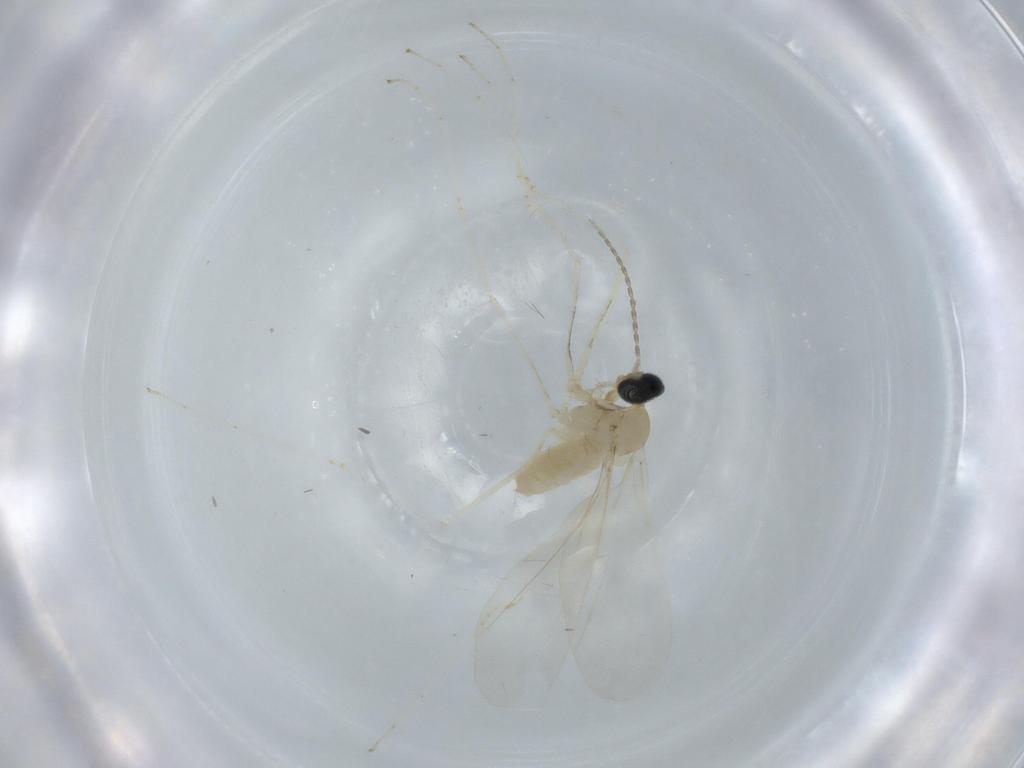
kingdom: Animalia
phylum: Arthropoda
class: Insecta
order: Diptera
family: Cecidomyiidae
